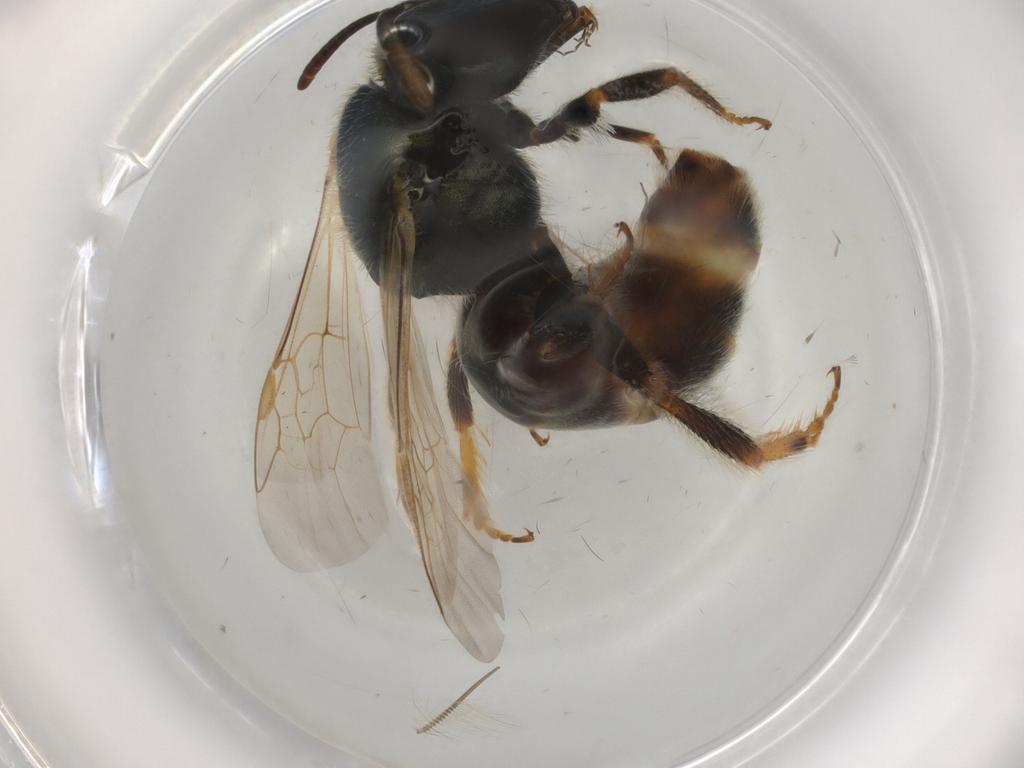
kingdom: Animalia
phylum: Arthropoda
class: Insecta
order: Hymenoptera
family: Halictidae
